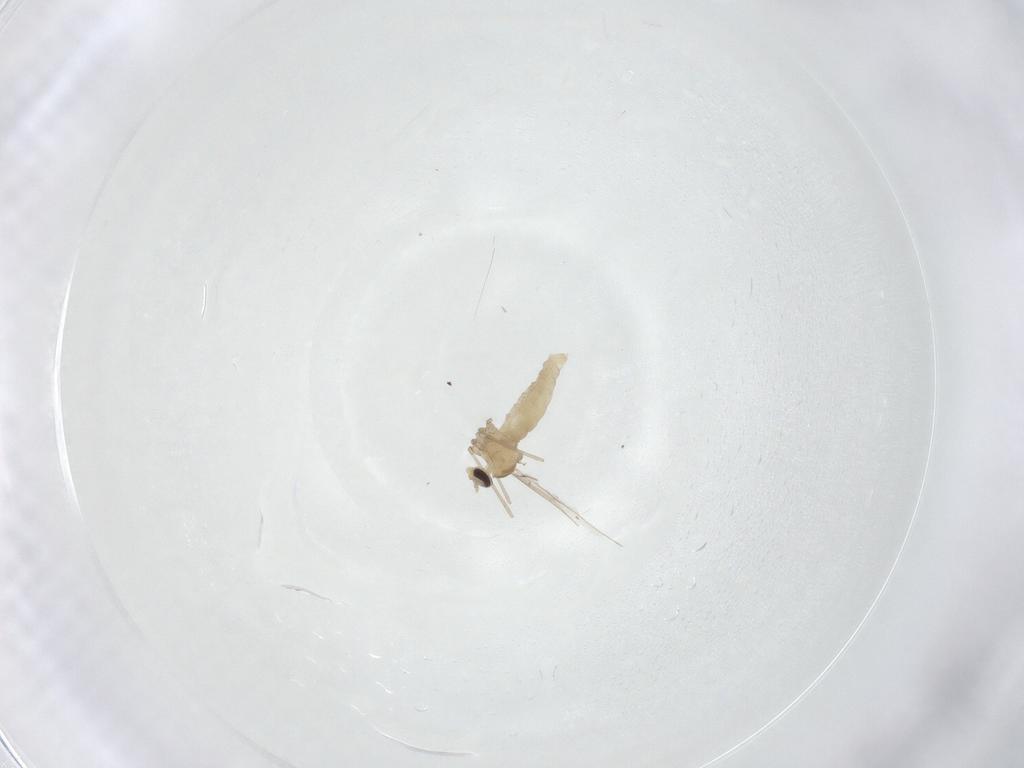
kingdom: Animalia
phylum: Arthropoda
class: Insecta
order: Diptera
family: Cecidomyiidae
